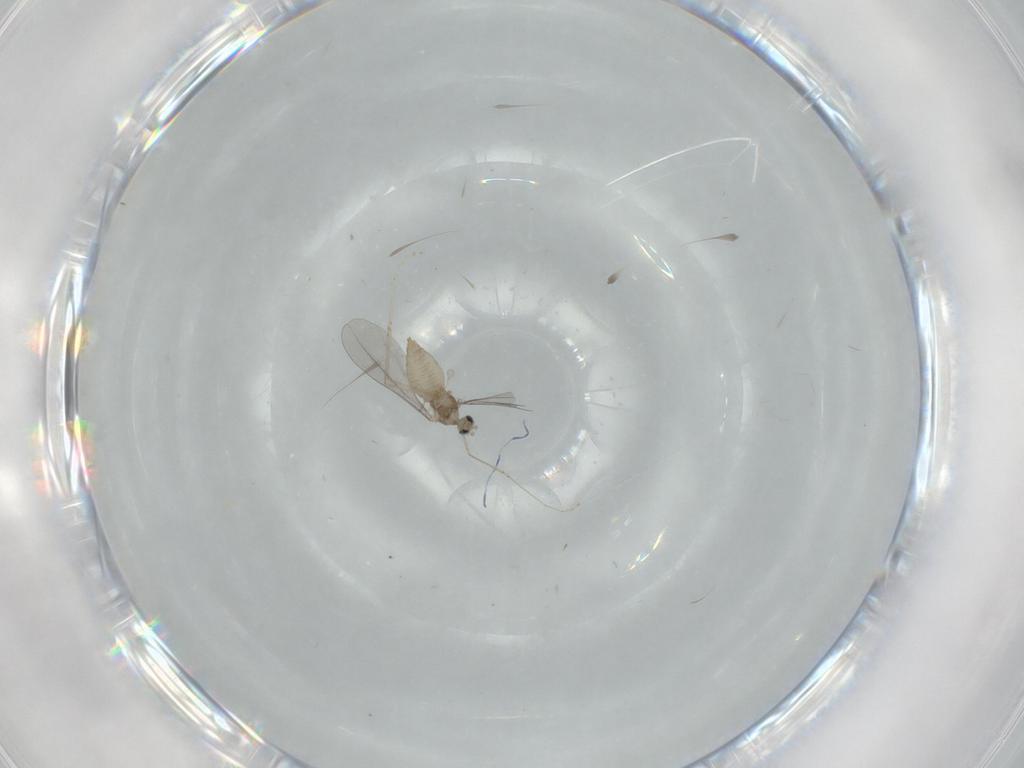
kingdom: Animalia
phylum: Arthropoda
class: Insecta
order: Diptera
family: Cecidomyiidae
